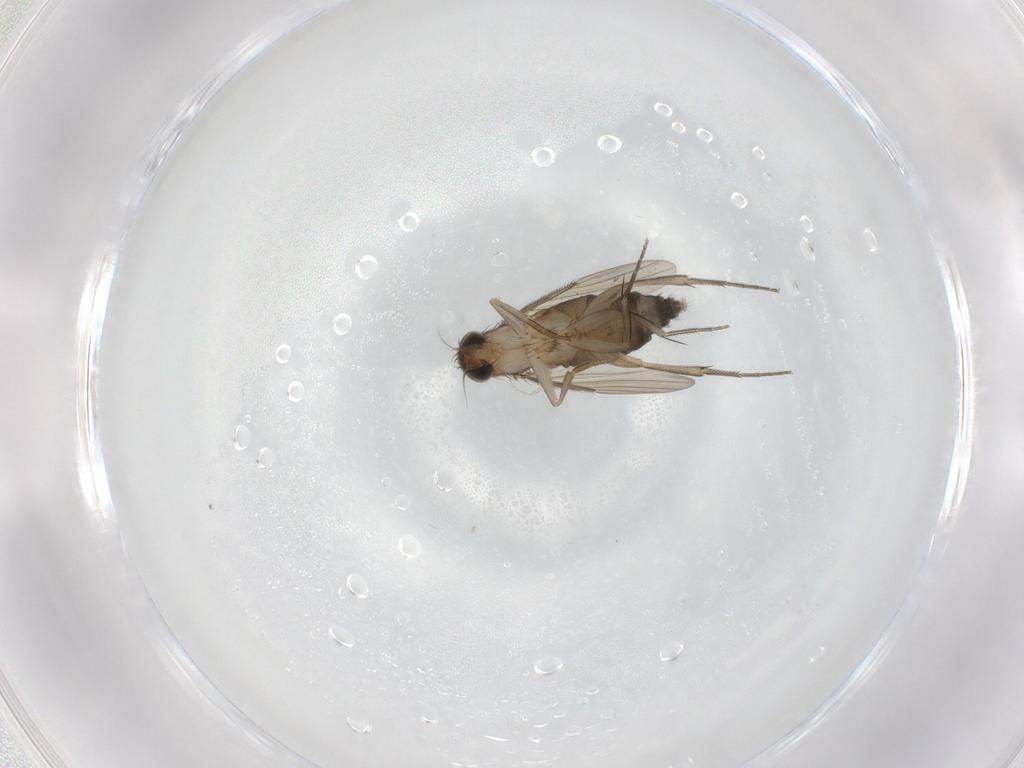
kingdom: Animalia
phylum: Arthropoda
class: Insecta
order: Diptera
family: Phoridae
